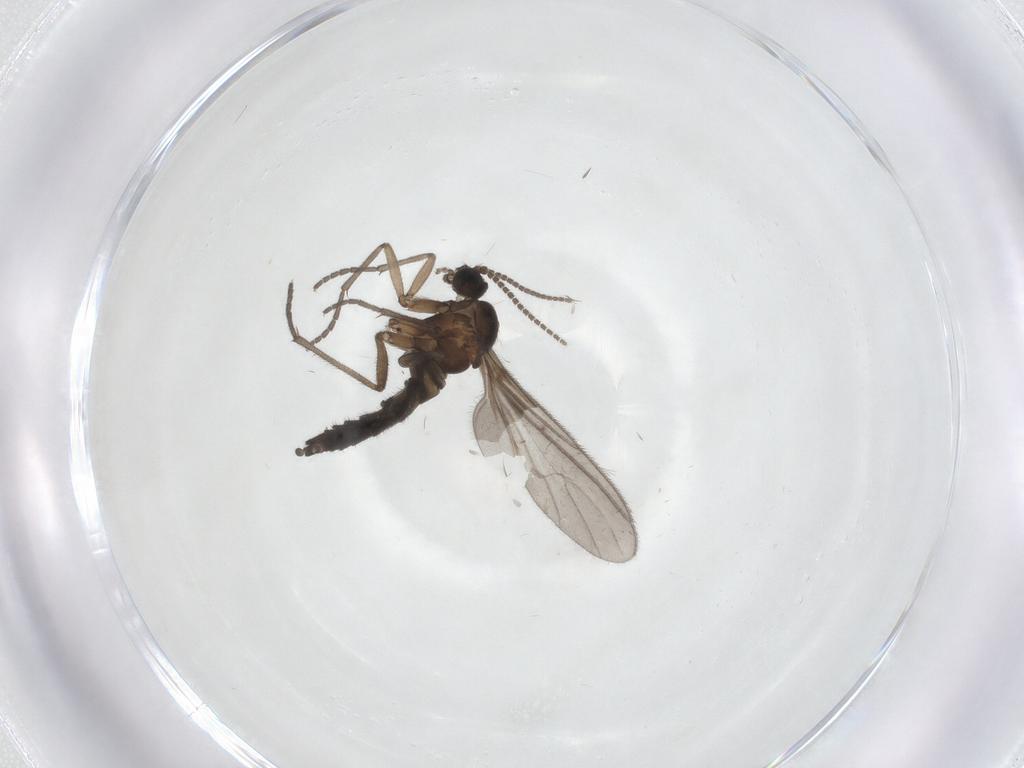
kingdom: Animalia
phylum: Arthropoda
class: Insecta
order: Diptera
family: Sciaridae
